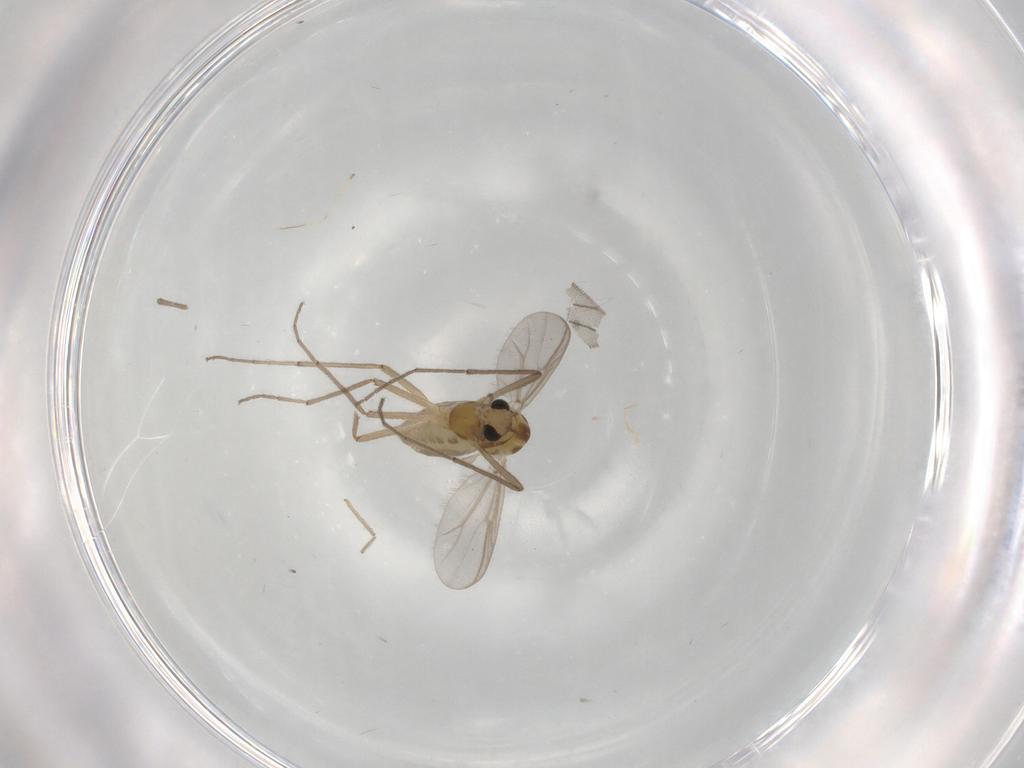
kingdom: Animalia
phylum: Arthropoda
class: Insecta
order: Diptera
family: Chironomidae
